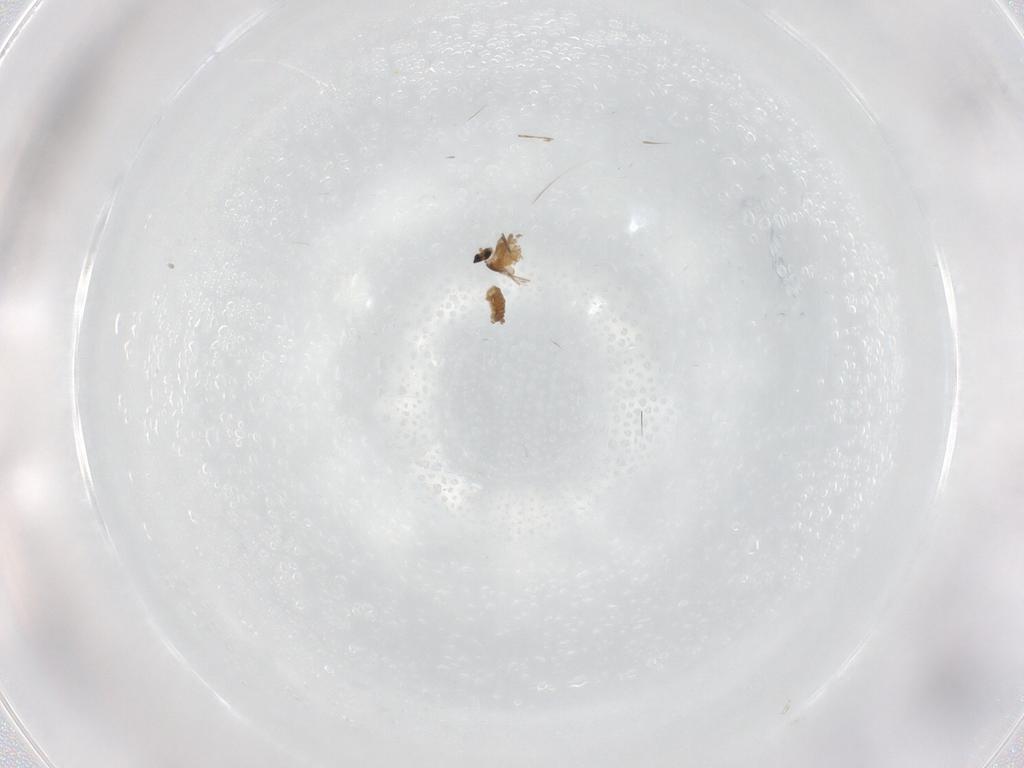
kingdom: Animalia
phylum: Arthropoda
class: Insecta
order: Diptera
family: Cecidomyiidae
